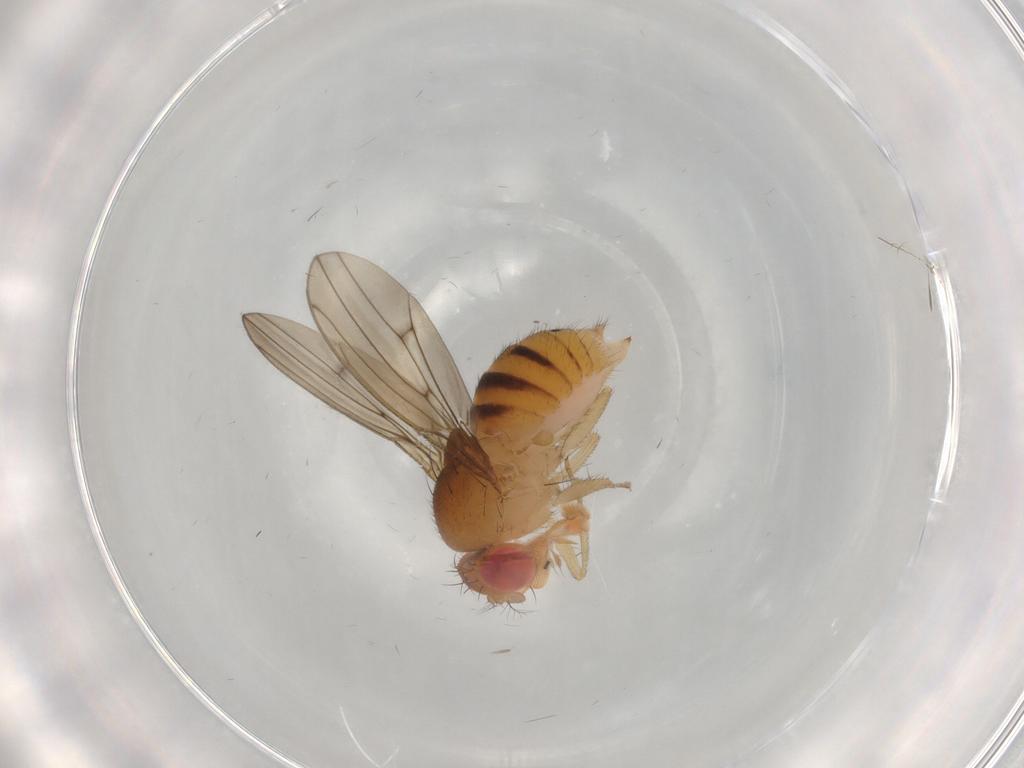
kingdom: Animalia
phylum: Arthropoda
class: Insecta
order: Diptera
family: Drosophilidae
